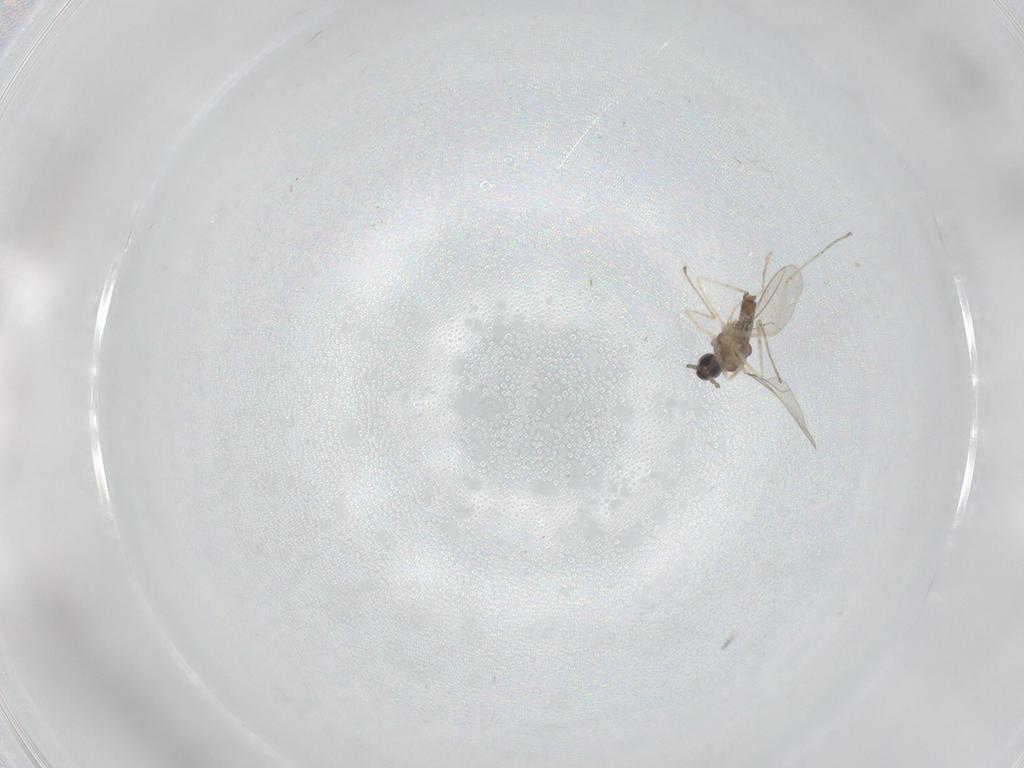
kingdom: Animalia
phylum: Arthropoda
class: Insecta
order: Diptera
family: Cecidomyiidae
